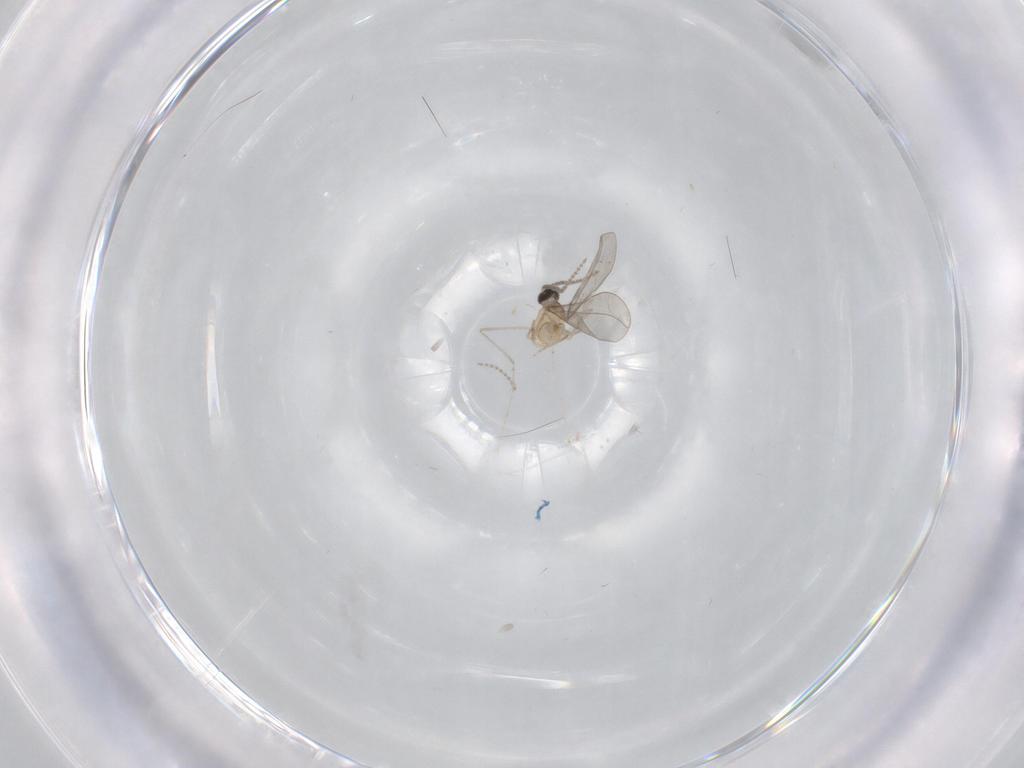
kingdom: Animalia
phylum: Arthropoda
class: Insecta
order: Diptera
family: Cecidomyiidae
